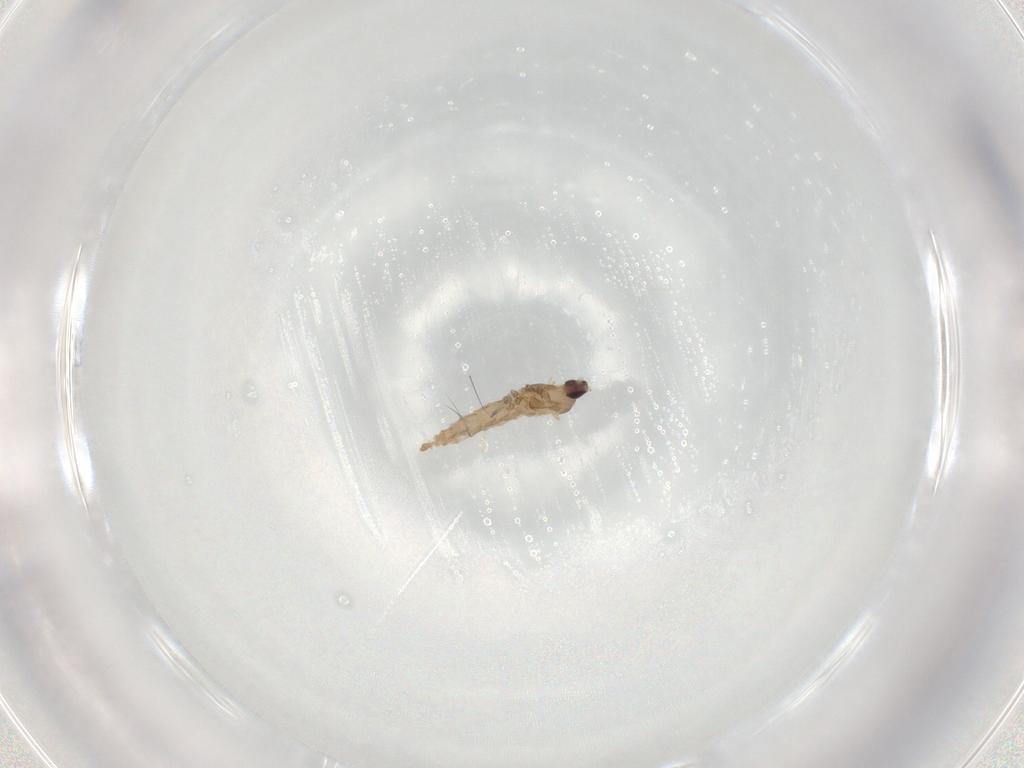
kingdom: Animalia
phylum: Arthropoda
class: Insecta
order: Diptera
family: Cecidomyiidae
